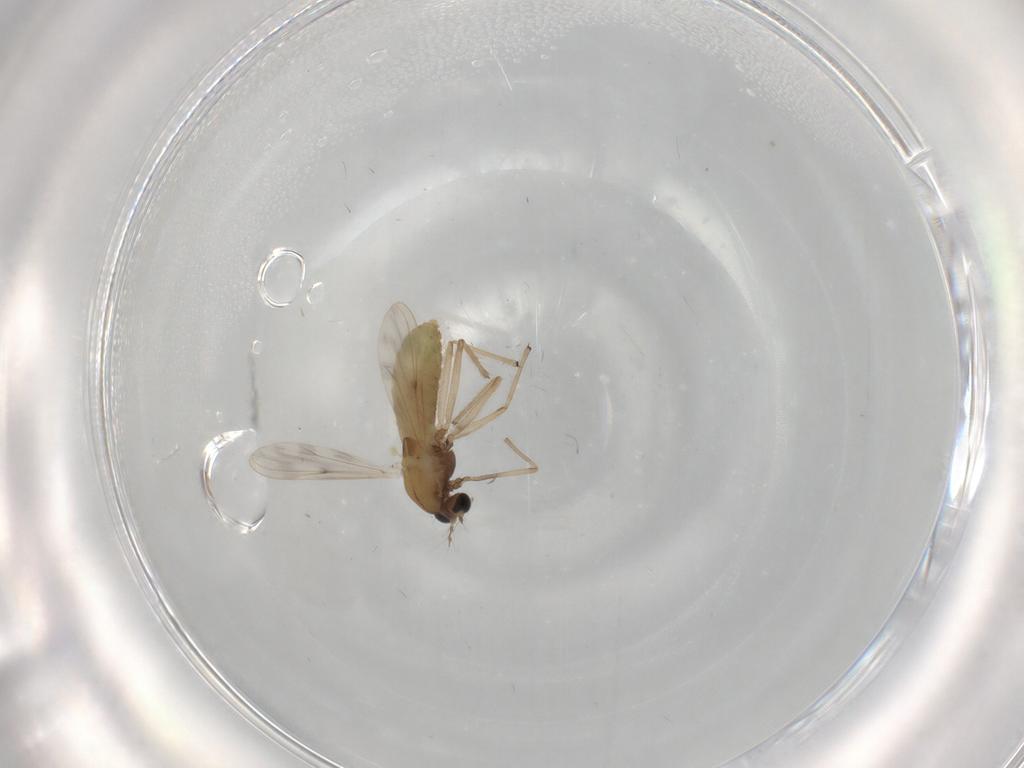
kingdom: Animalia
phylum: Arthropoda
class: Insecta
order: Diptera
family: Chironomidae
